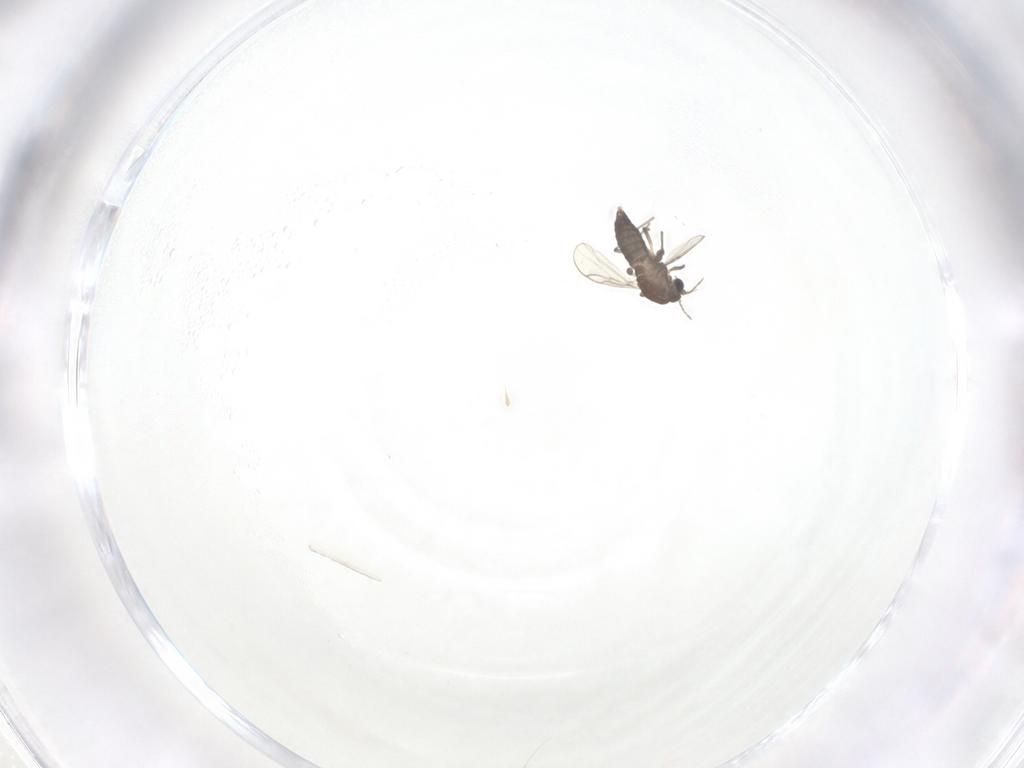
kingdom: Animalia
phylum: Arthropoda
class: Insecta
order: Diptera
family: Chironomidae
